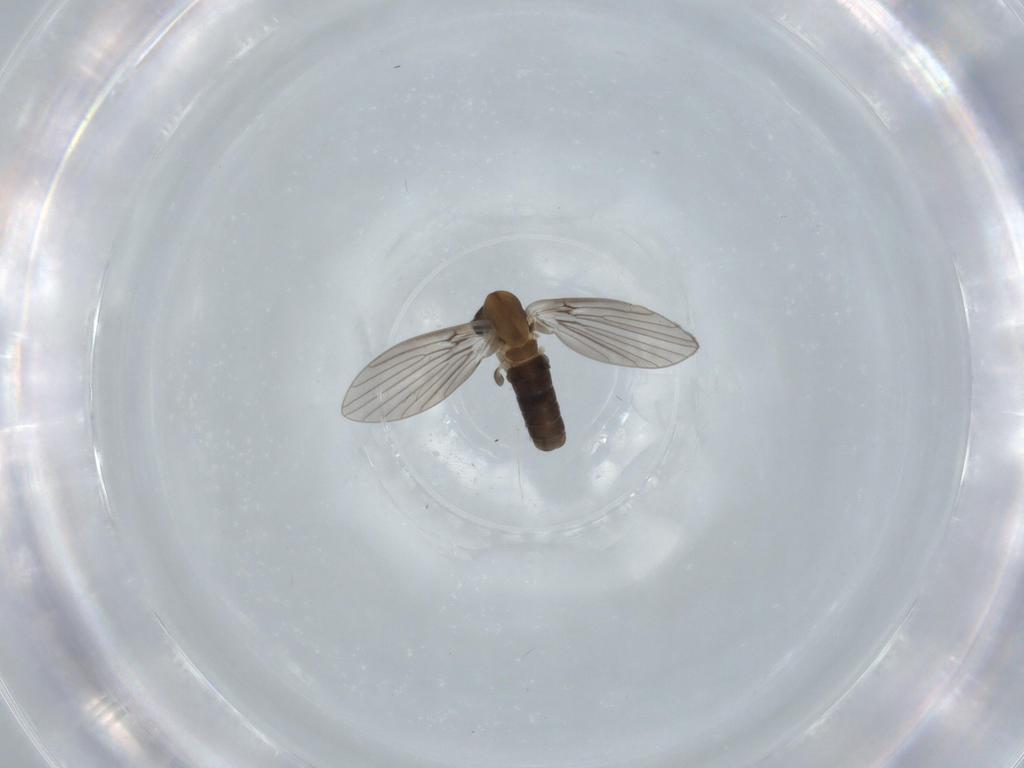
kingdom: Animalia
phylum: Arthropoda
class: Insecta
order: Diptera
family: Psychodidae
